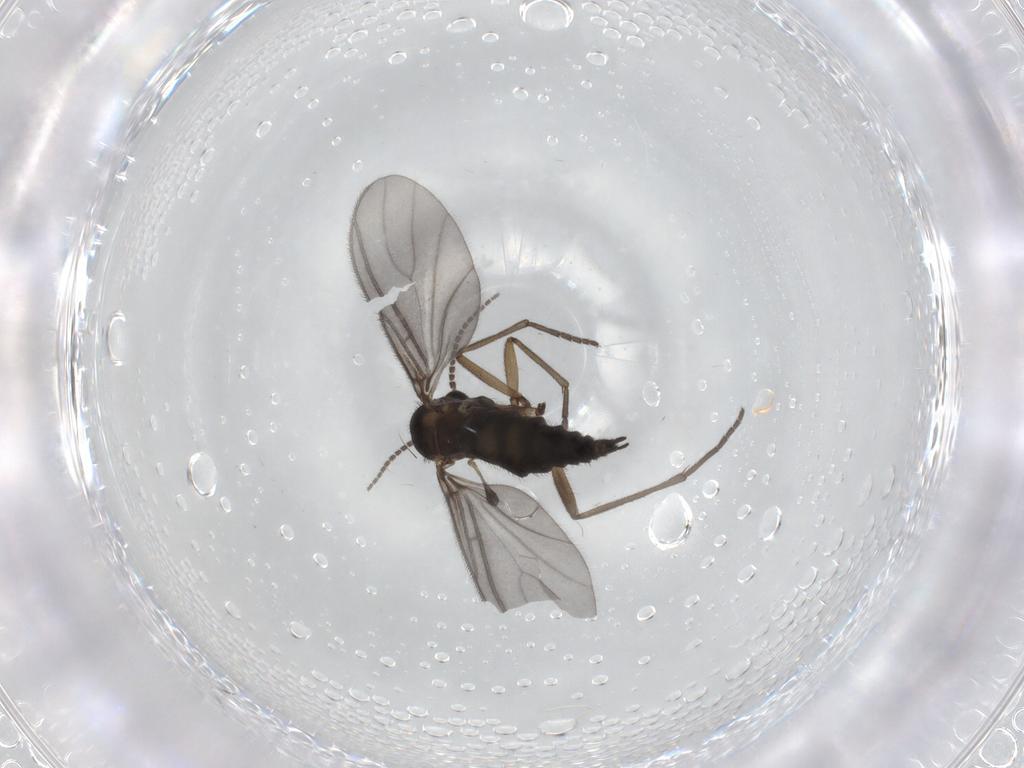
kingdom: Animalia
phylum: Arthropoda
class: Insecta
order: Diptera
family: Sciaridae
